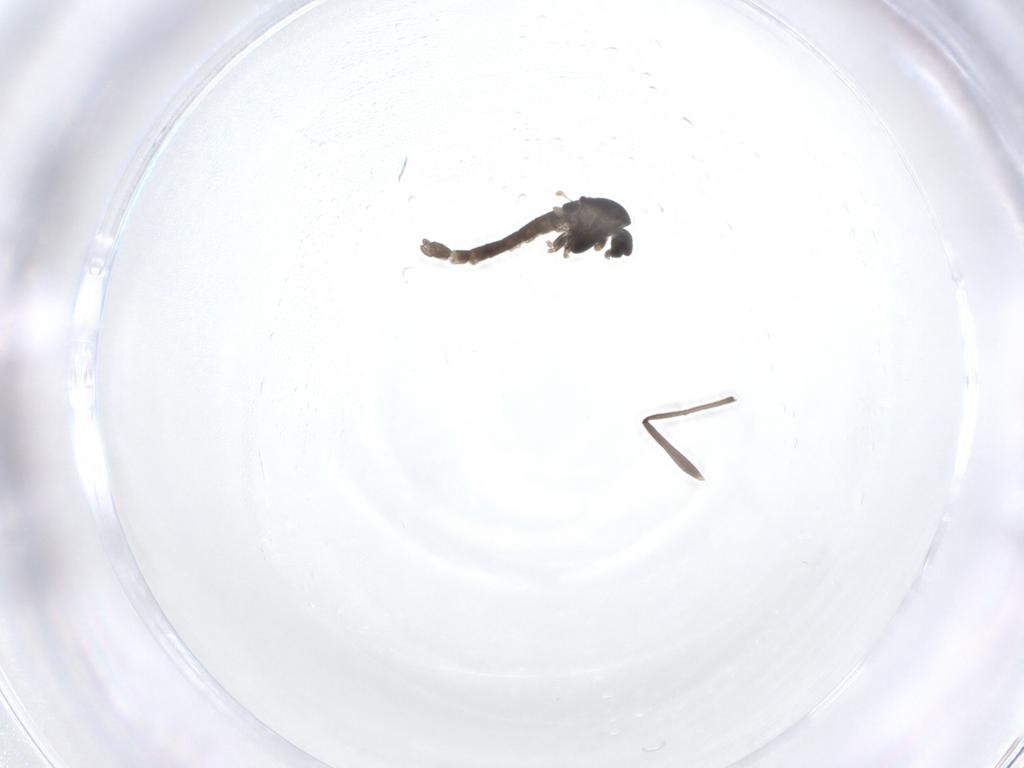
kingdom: Animalia
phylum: Arthropoda
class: Insecta
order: Diptera
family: Chironomidae
